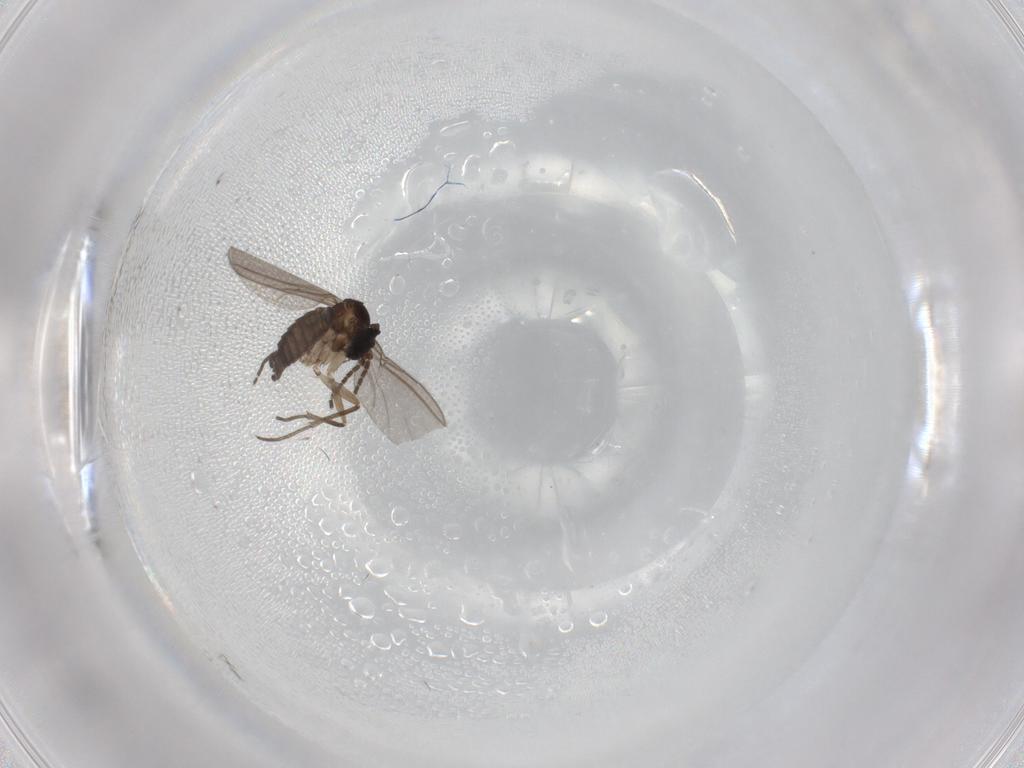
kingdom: Animalia
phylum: Arthropoda
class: Insecta
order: Diptera
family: Sciaridae
